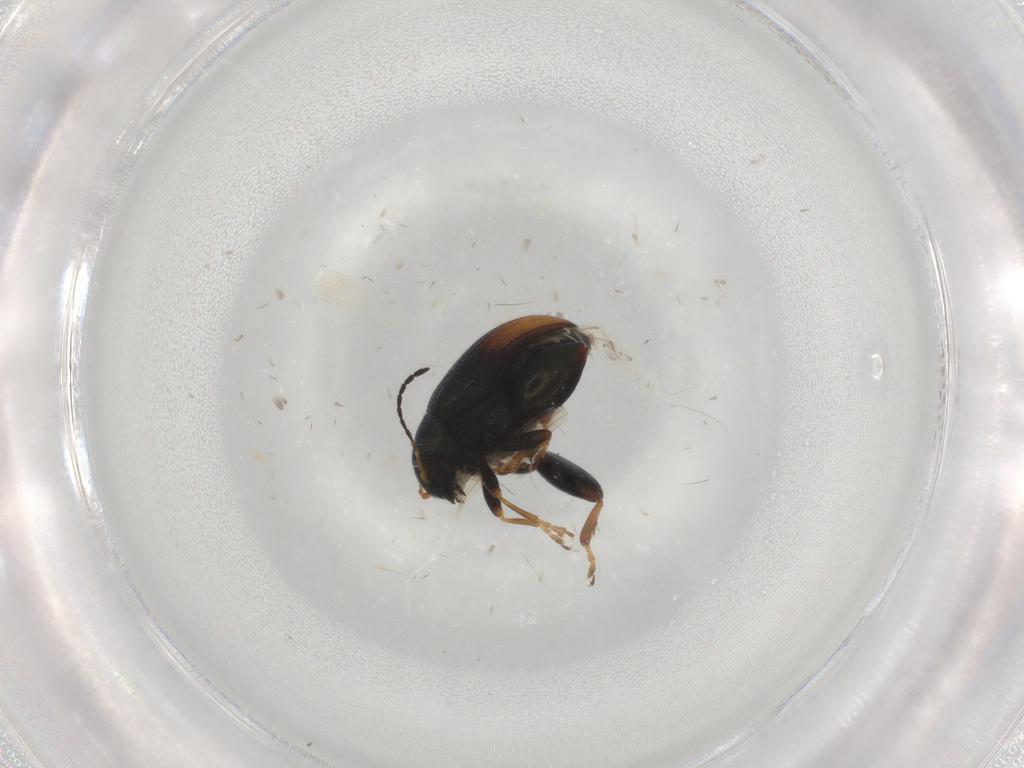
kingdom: Animalia
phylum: Arthropoda
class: Insecta
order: Coleoptera
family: Chrysomelidae
